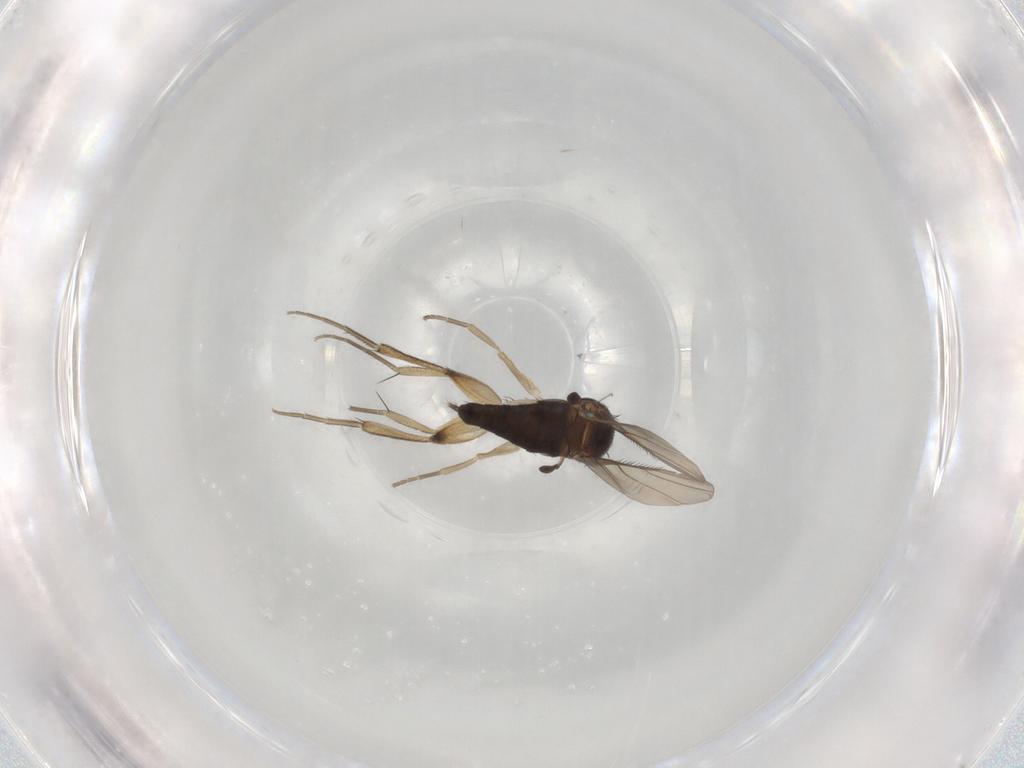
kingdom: Animalia
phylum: Arthropoda
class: Insecta
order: Diptera
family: Phoridae
